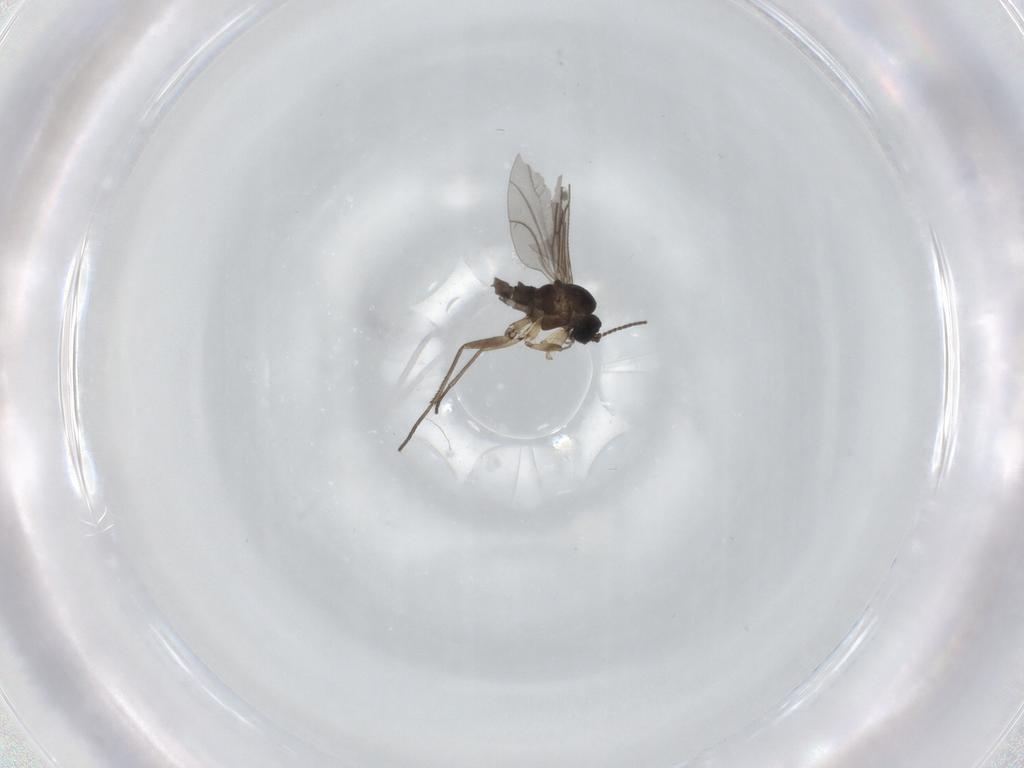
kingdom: Animalia
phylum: Arthropoda
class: Insecta
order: Diptera
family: Sciaridae
